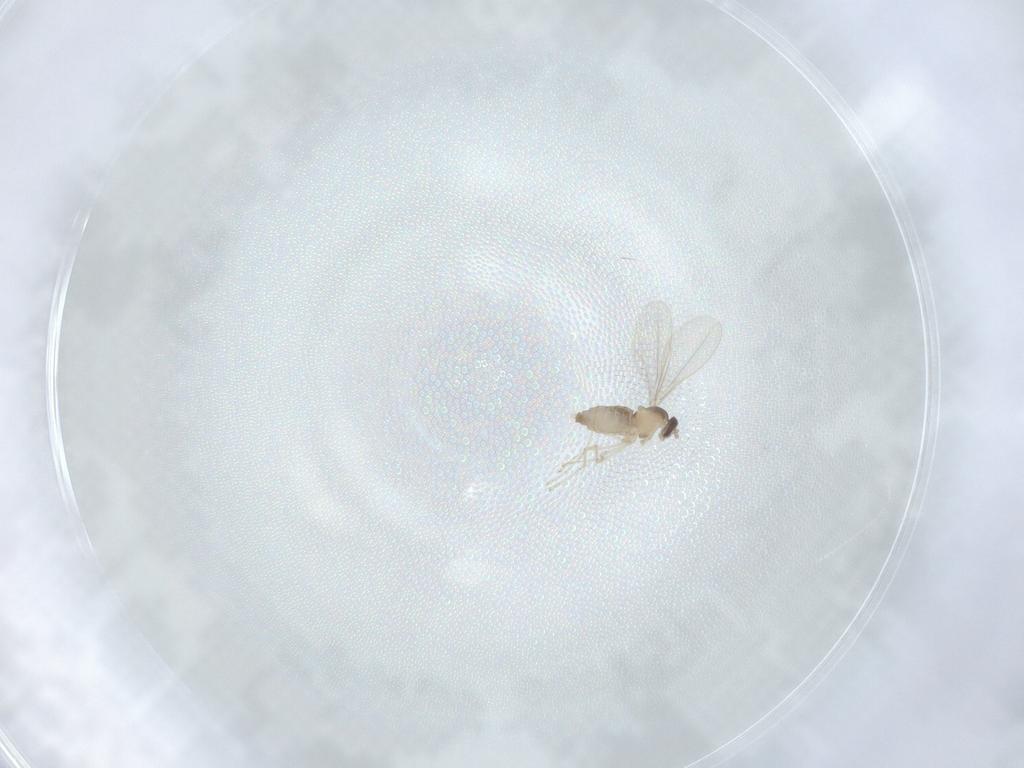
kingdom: Animalia
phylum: Arthropoda
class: Insecta
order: Diptera
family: Cecidomyiidae
